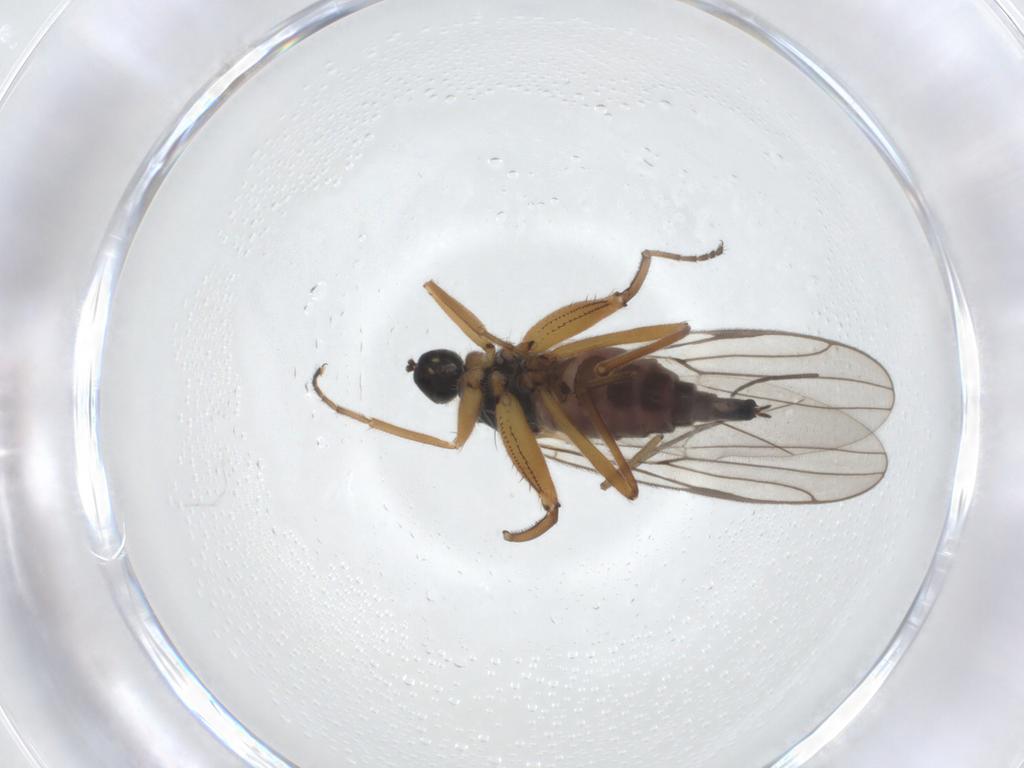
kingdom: Animalia
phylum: Arthropoda
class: Insecta
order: Diptera
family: Hybotidae
